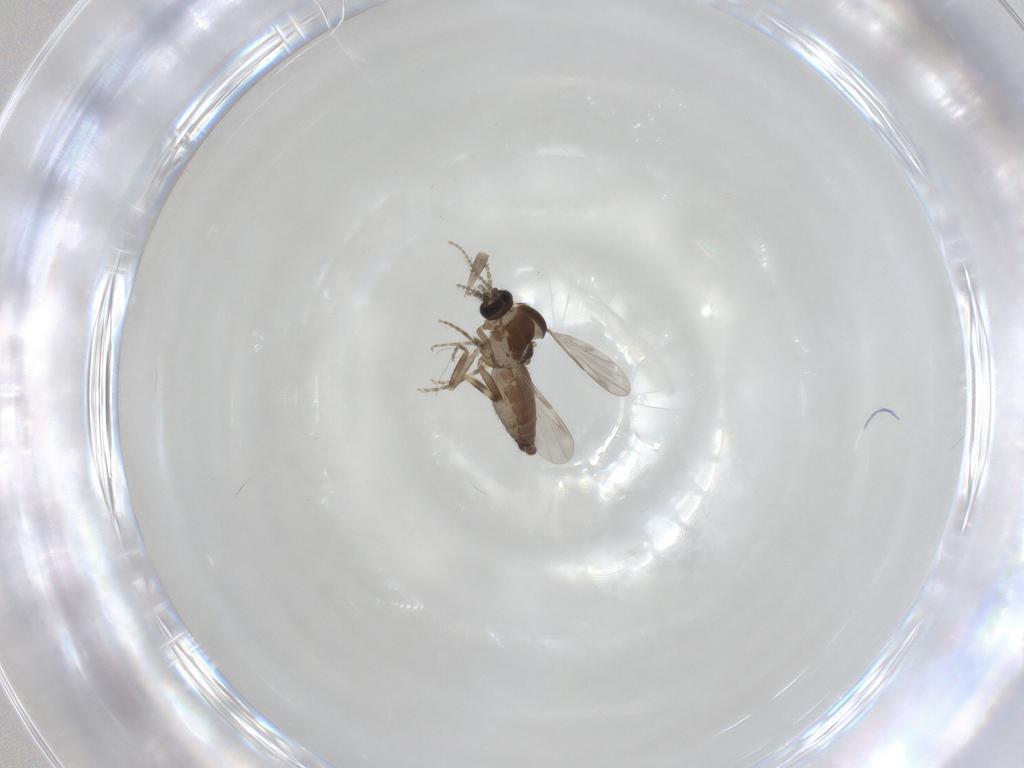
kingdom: Animalia
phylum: Arthropoda
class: Insecta
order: Diptera
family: Ceratopogonidae
